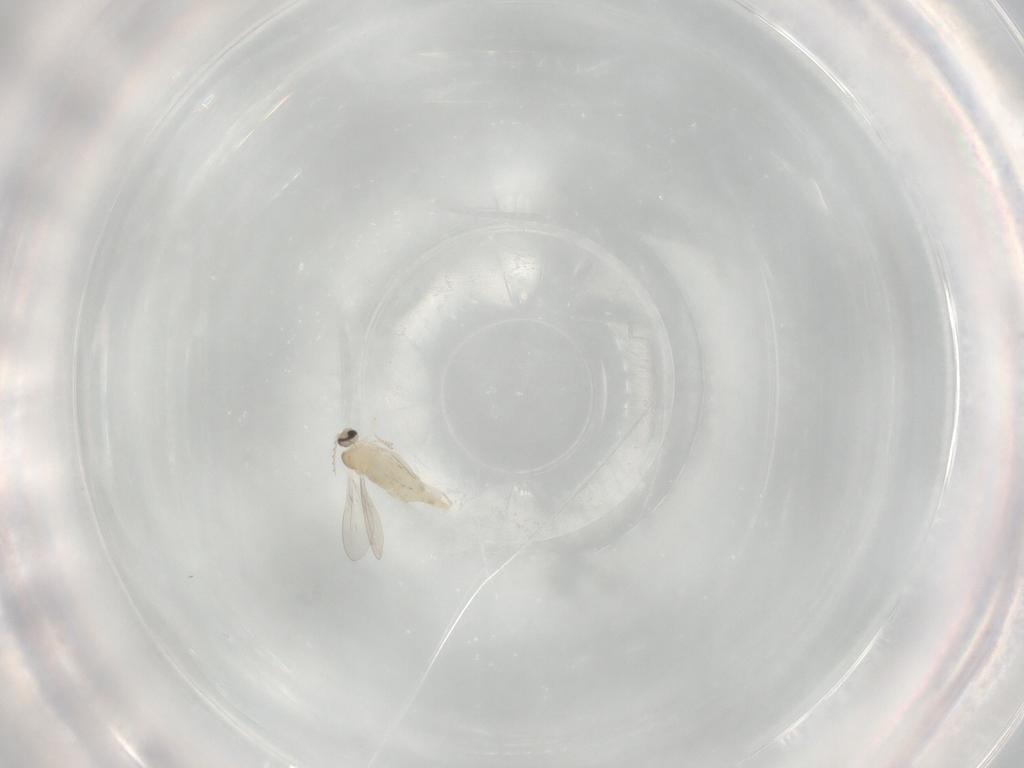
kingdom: Animalia
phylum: Arthropoda
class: Insecta
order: Diptera
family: Cecidomyiidae
